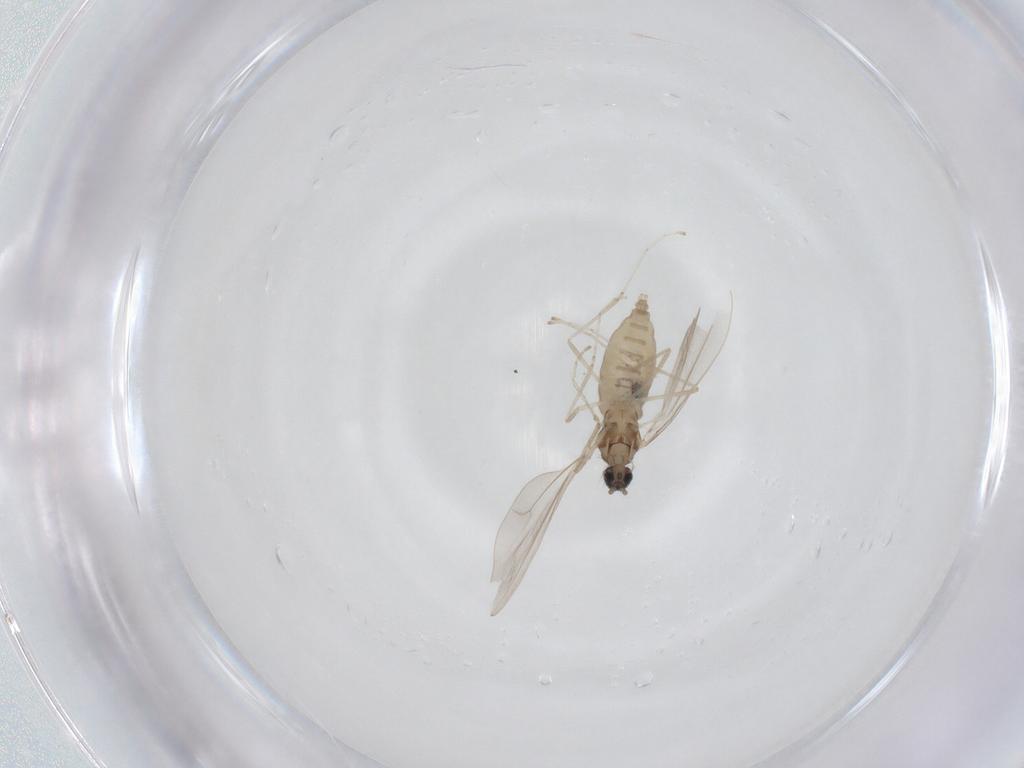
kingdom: Animalia
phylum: Arthropoda
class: Insecta
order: Diptera
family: Cecidomyiidae
